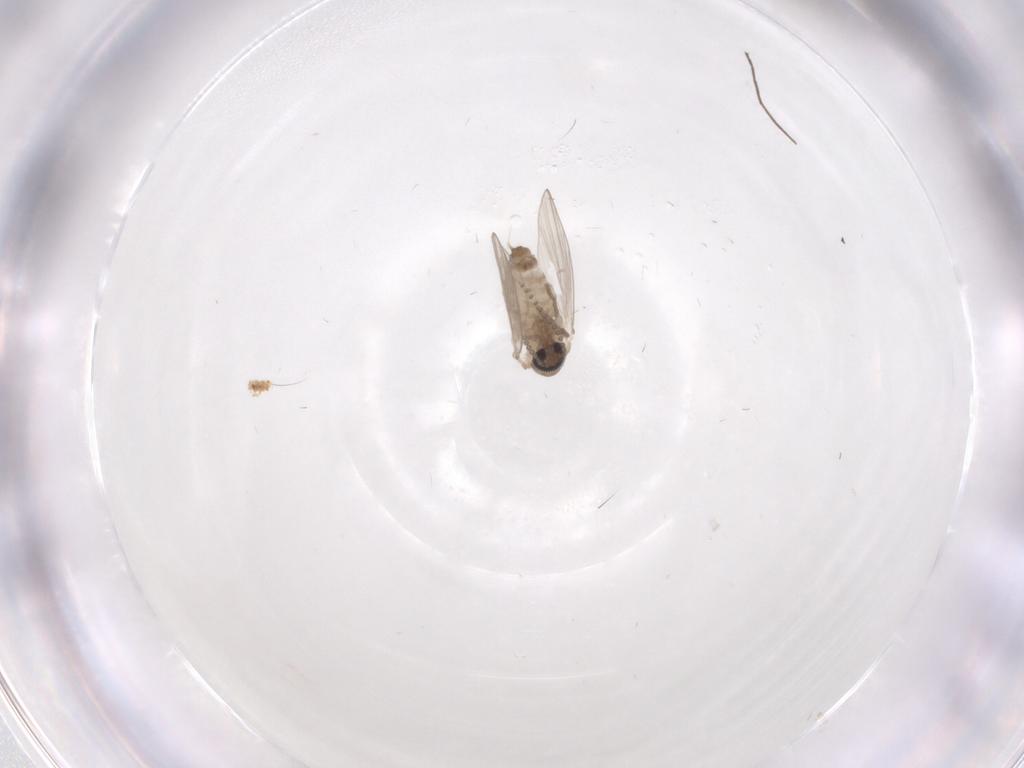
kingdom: Animalia
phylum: Arthropoda
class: Insecta
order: Diptera
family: Psychodidae
